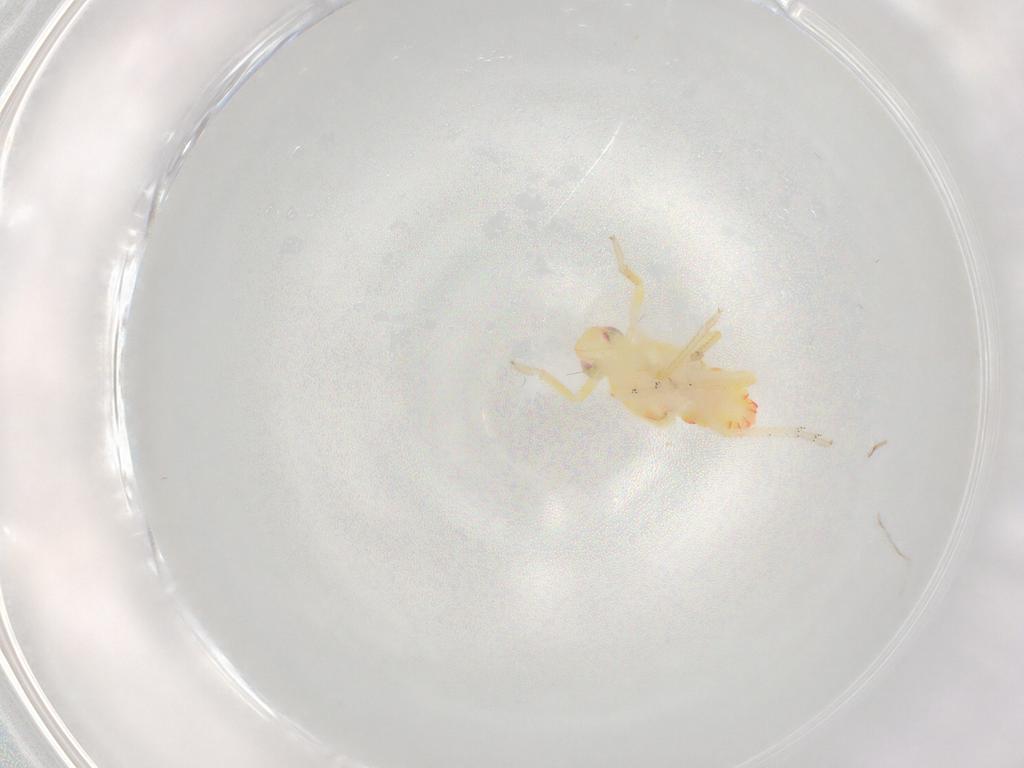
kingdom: Animalia
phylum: Arthropoda
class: Insecta
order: Hemiptera
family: Tropiduchidae
